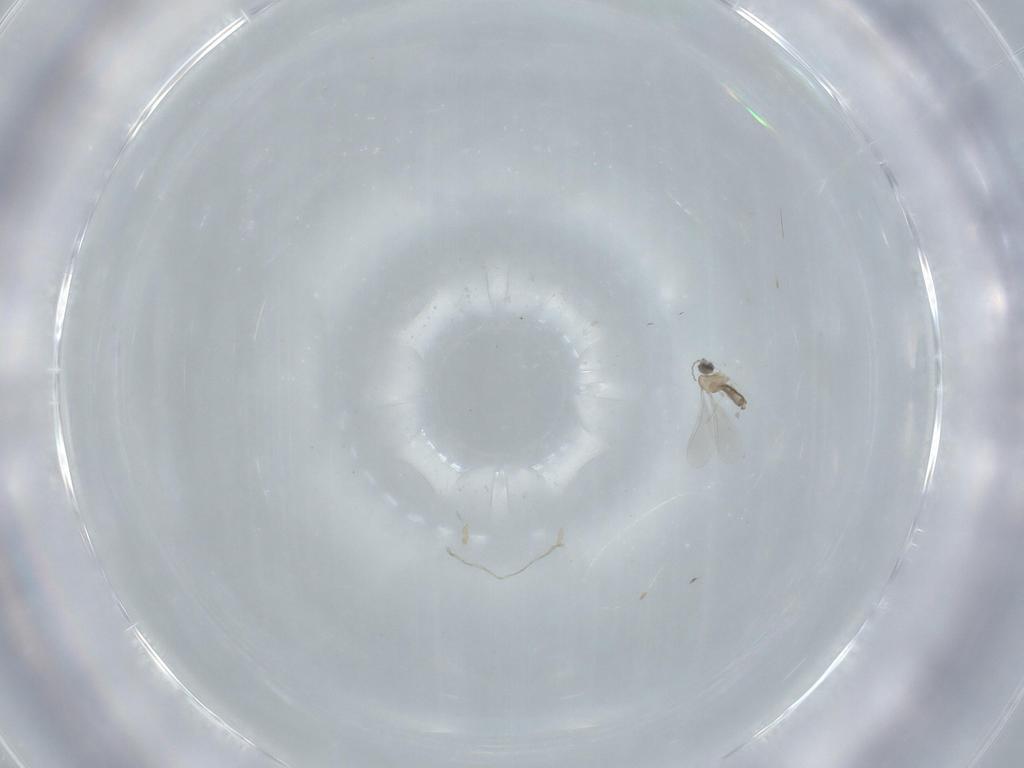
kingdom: Animalia
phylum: Arthropoda
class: Insecta
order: Diptera
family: Cecidomyiidae
